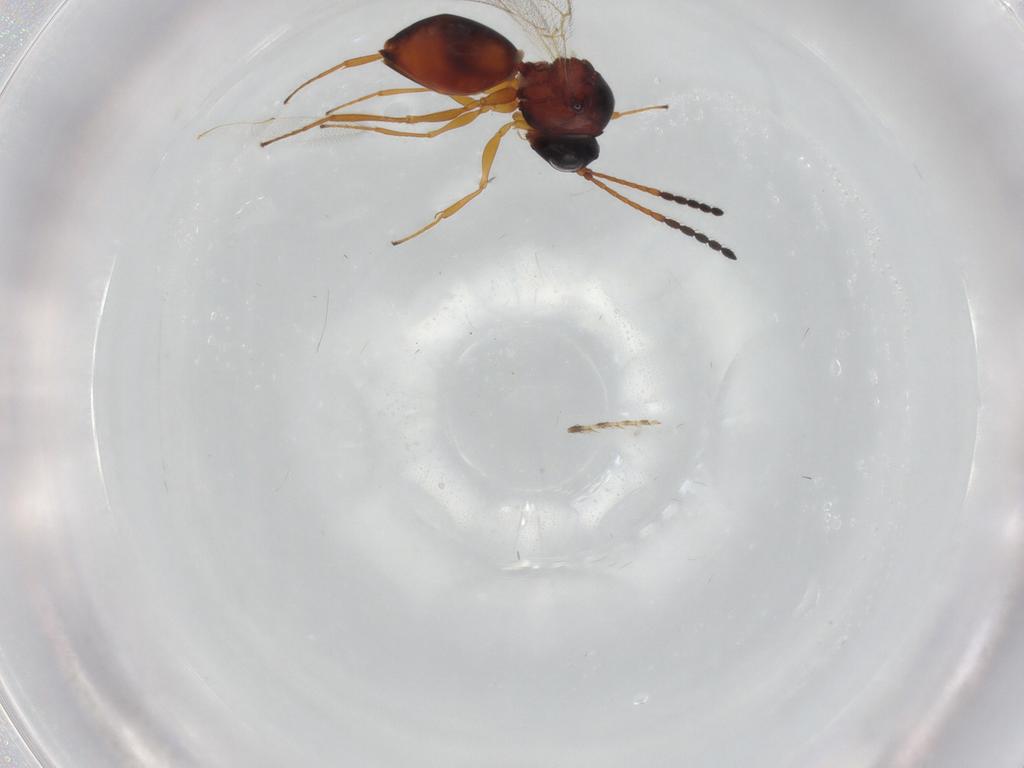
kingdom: Animalia
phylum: Arthropoda
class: Insecta
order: Hymenoptera
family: Figitidae
